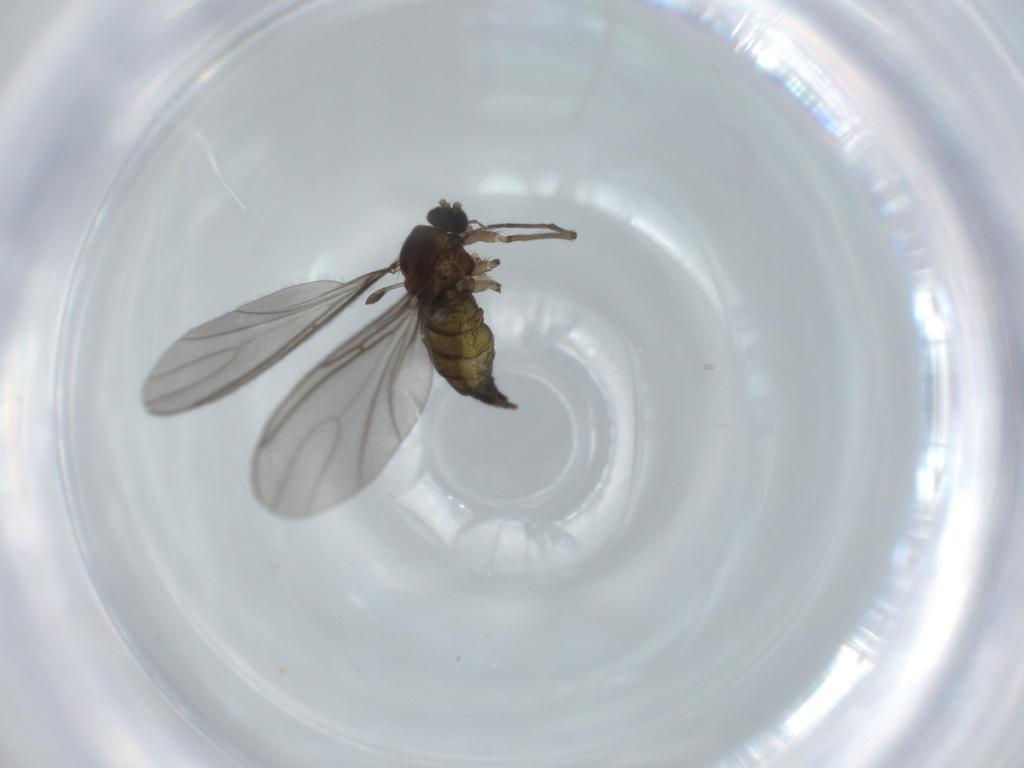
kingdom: Animalia
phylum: Arthropoda
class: Insecta
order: Diptera
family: Sciaridae
